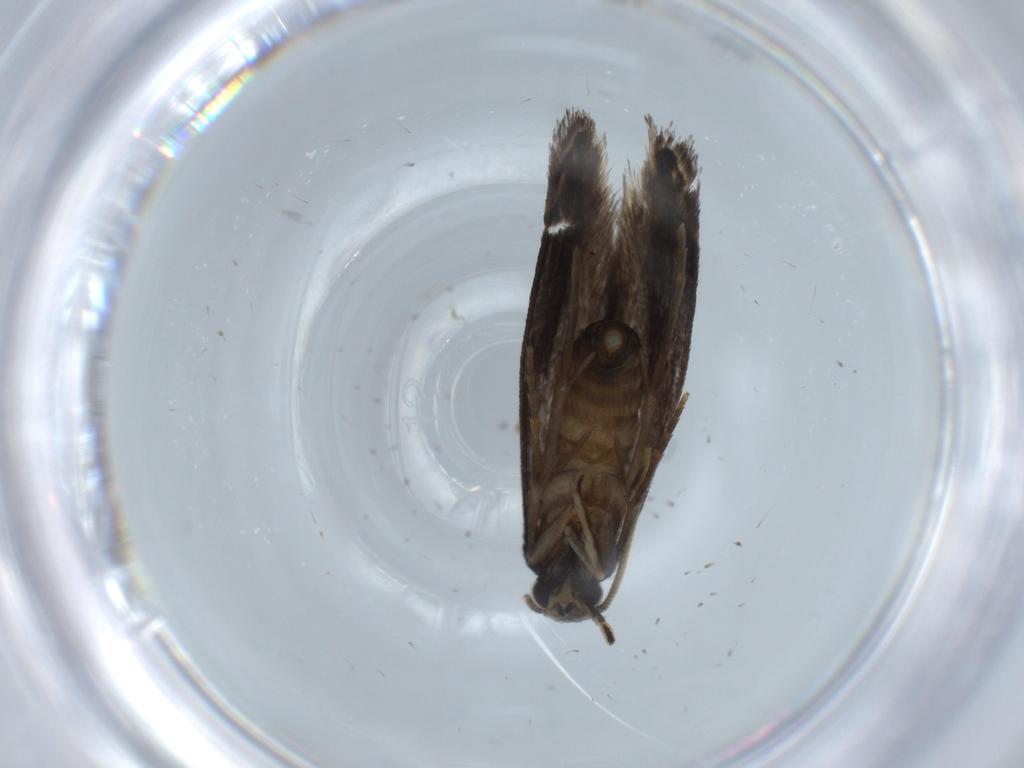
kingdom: Animalia
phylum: Arthropoda
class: Insecta
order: Lepidoptera
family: Tineidae
